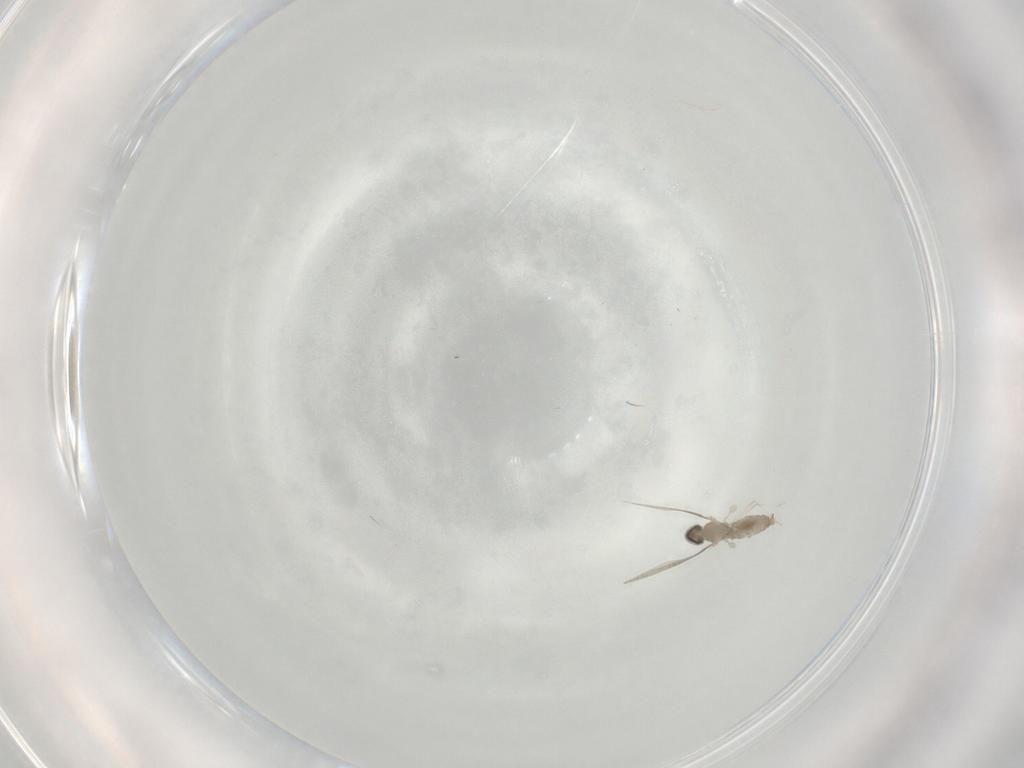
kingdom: Animalia
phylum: Arthropoda
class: Insecta
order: Diptera
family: Cecidomyiidae
